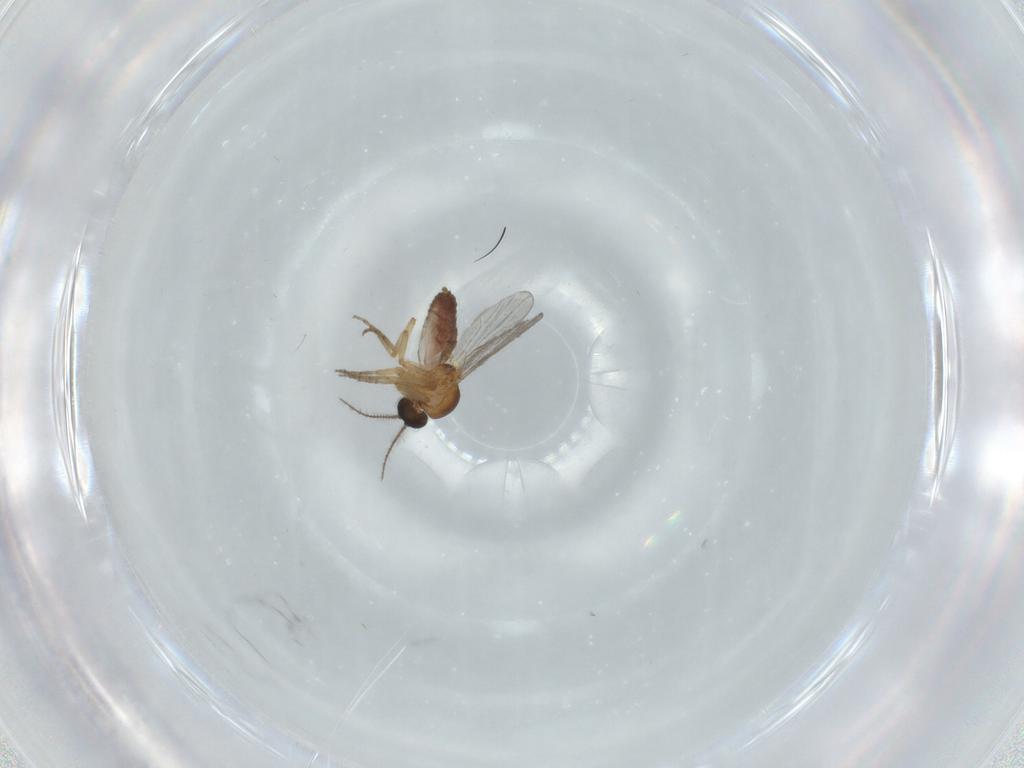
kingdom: Animalia
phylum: Arthropoda
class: Insecta
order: Diptera
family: Ceratopogonidae
